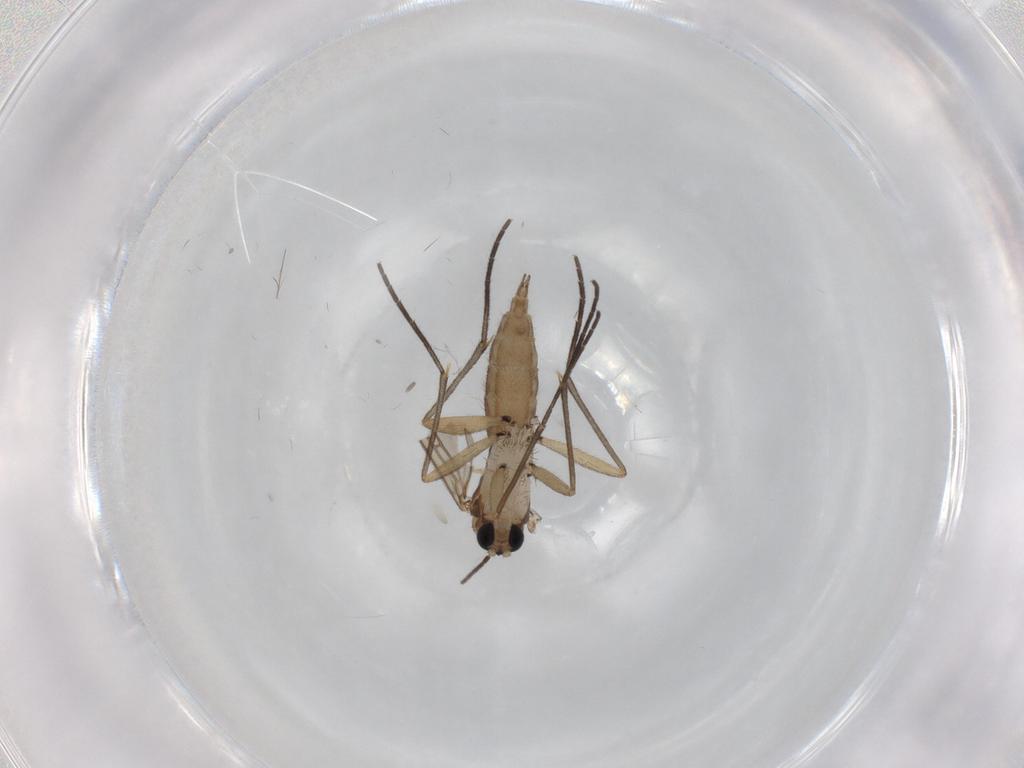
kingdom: Animalia
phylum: Arthropoda
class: Insecta
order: Diptera
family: Sciaridae
